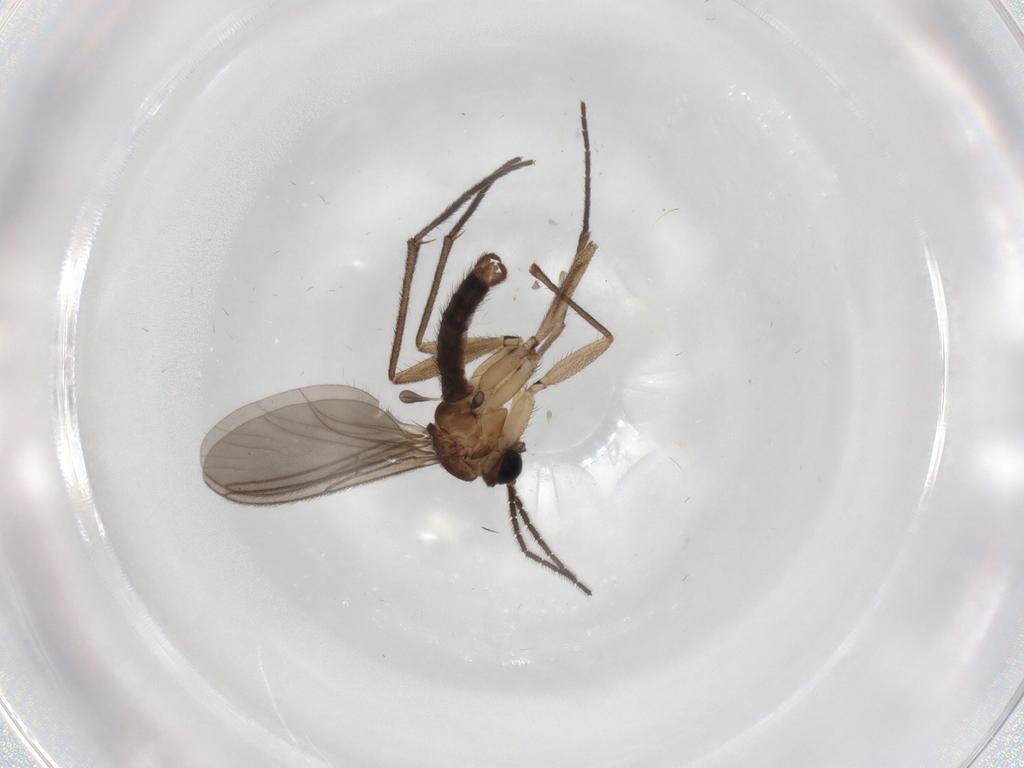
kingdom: Animalia
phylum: Arthropoda
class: Insecta
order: Diptera
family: Sciaridae
